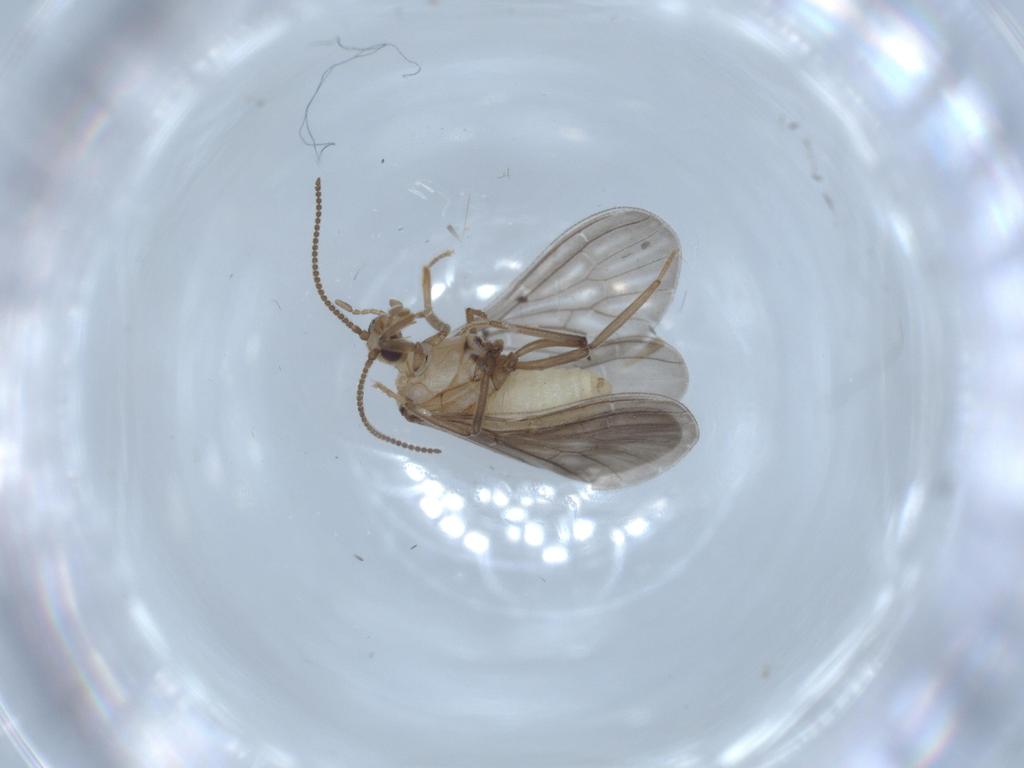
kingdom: Animalia
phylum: Arthropoda
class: Insecta
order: Neuroptera
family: Coniopterygidae
